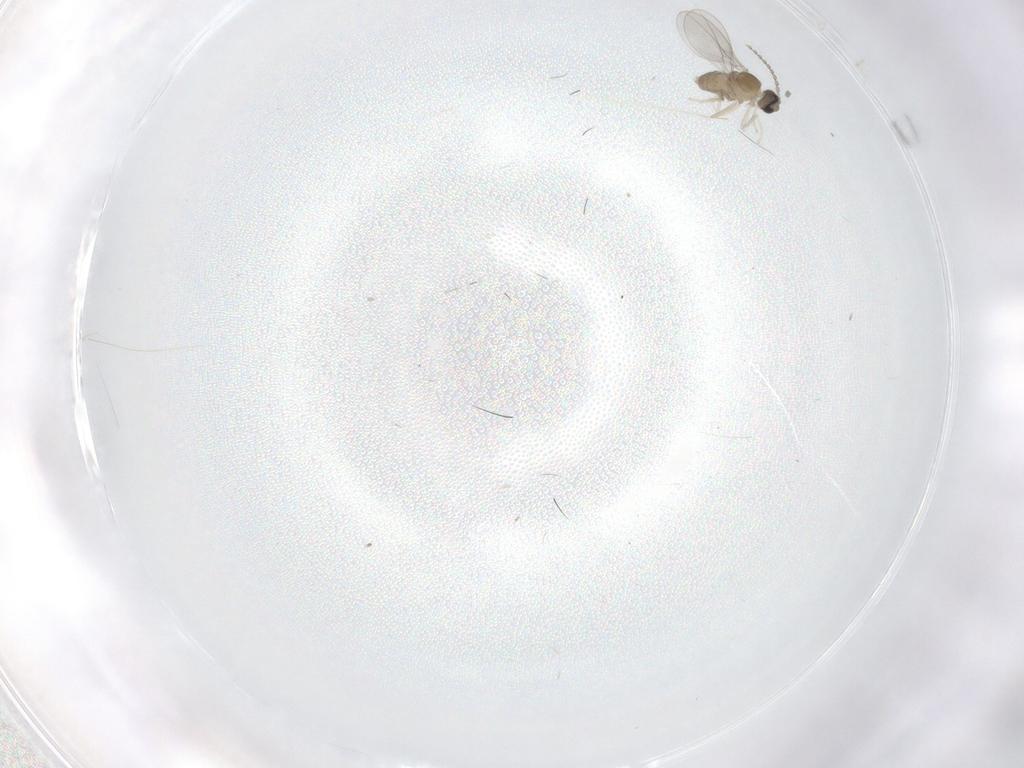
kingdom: Animalia
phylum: Arthropoda
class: Insecta
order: Diptera
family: Cecidomyiidae
